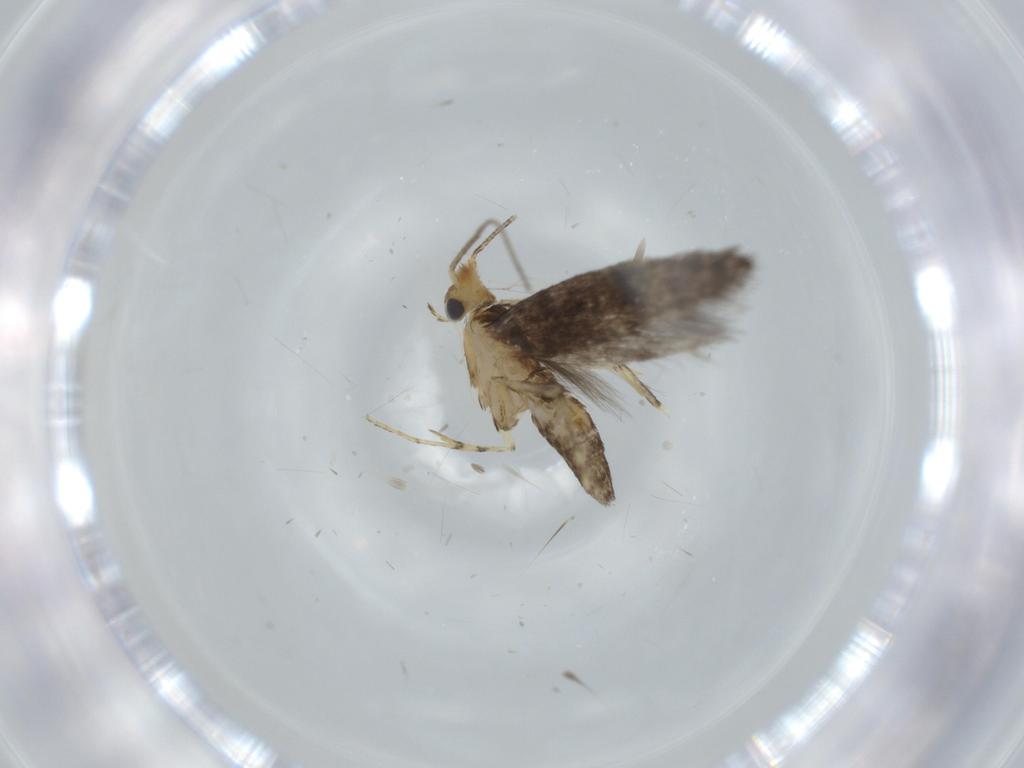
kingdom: Animalia
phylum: Arthropoda
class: Insecta
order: Lepidoptera
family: Argyresthiidae
